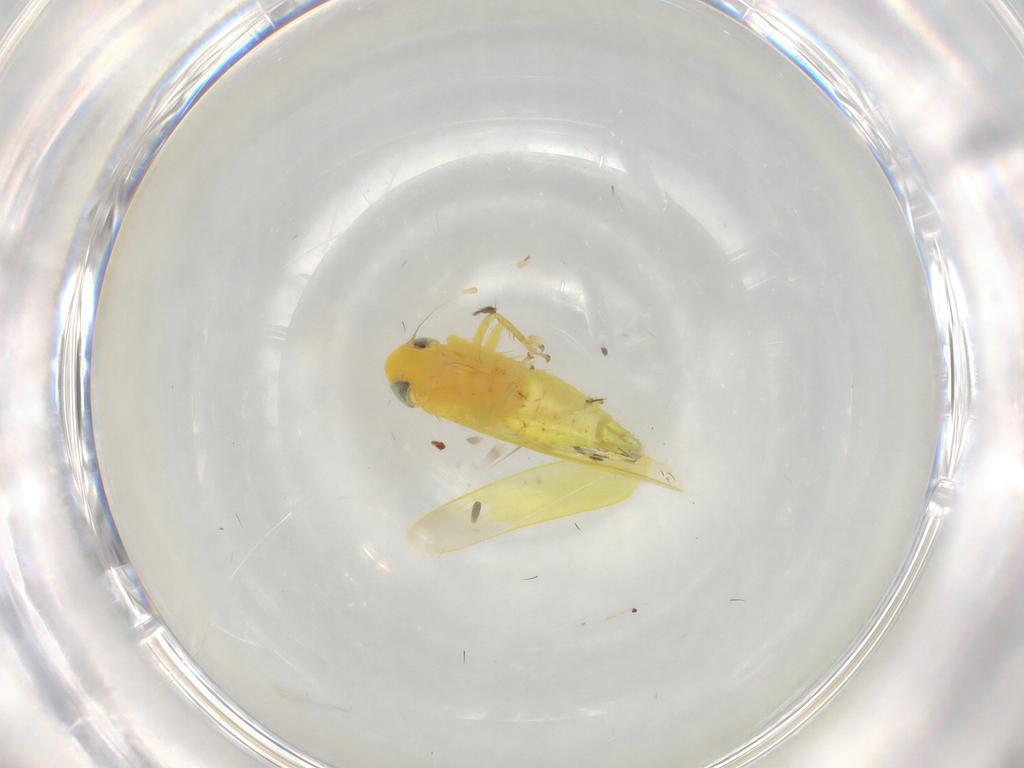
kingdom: Animalia
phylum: Arthropoda
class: Insecta
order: Hemiptera
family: Cicadellidae
